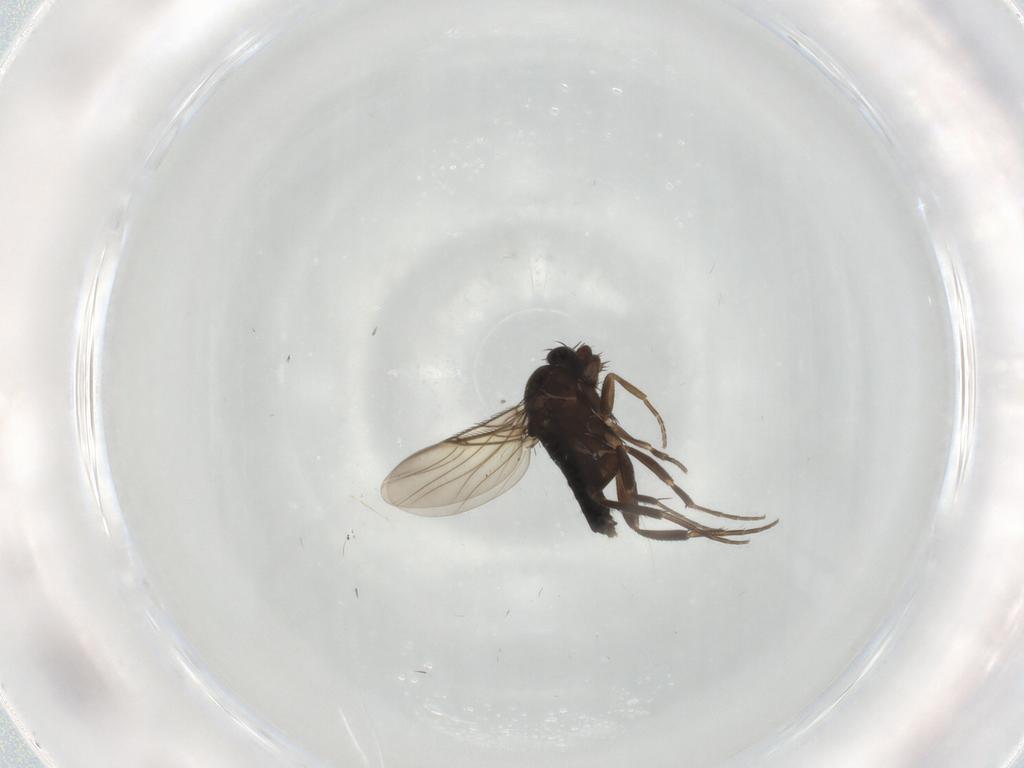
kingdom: Animalia
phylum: Arthropoda
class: Insecta
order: Diptera
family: Phoridae
